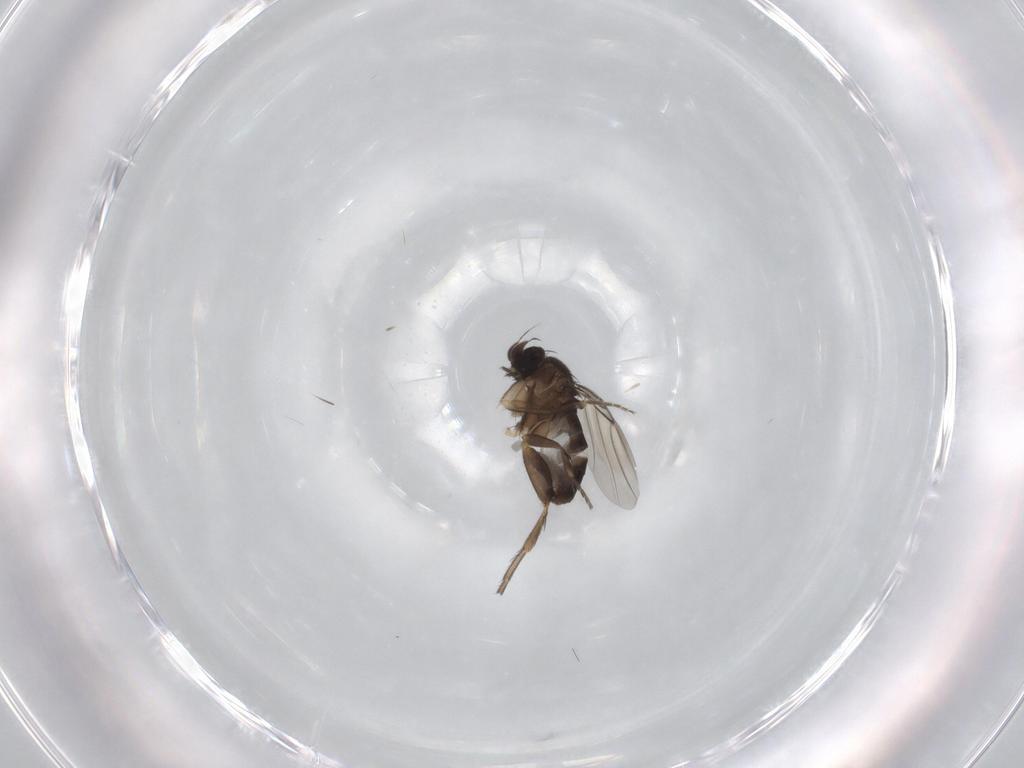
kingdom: Animalia
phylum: Arthropoda
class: Insecta
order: Diptera
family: Phoridae
